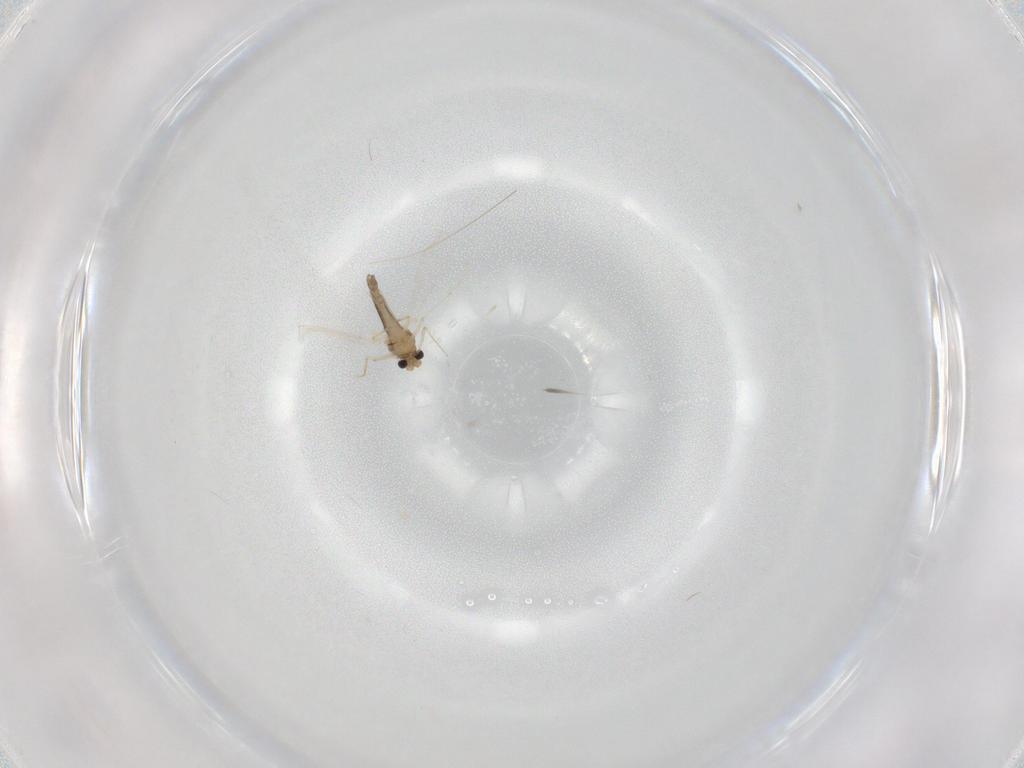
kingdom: Animalia
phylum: Arthropoda
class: Insecta
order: Diptera
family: Chironomidae
